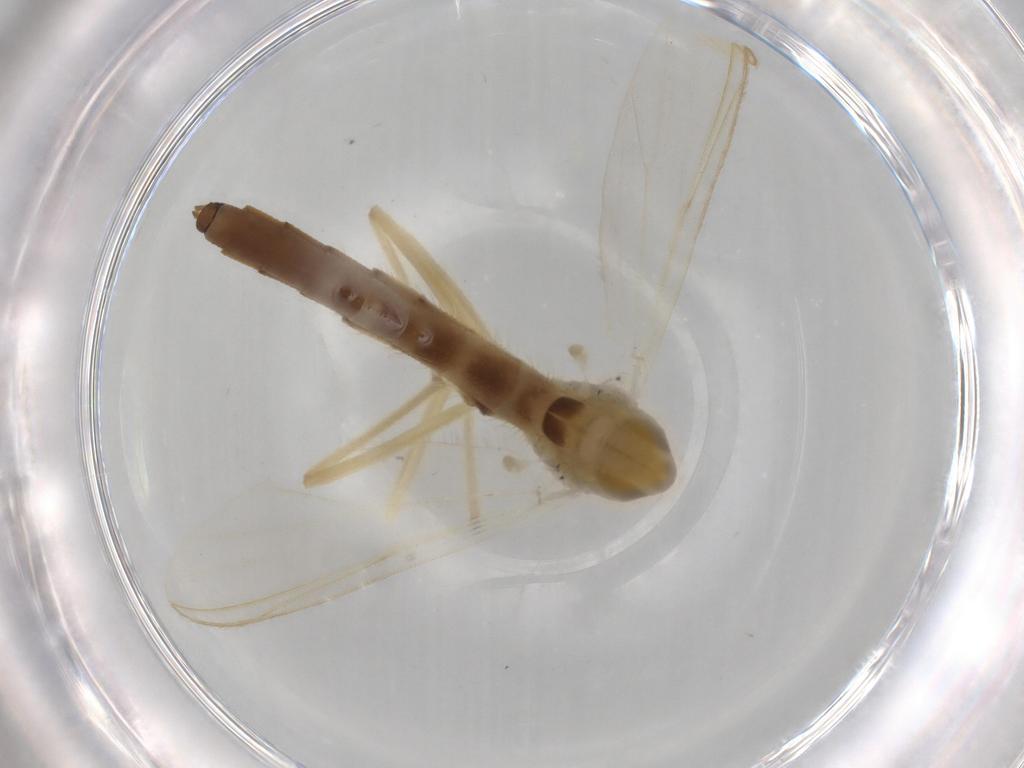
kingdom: Animalia
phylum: Arthropoda
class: Insecta
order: Diptera
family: Chironomidae
